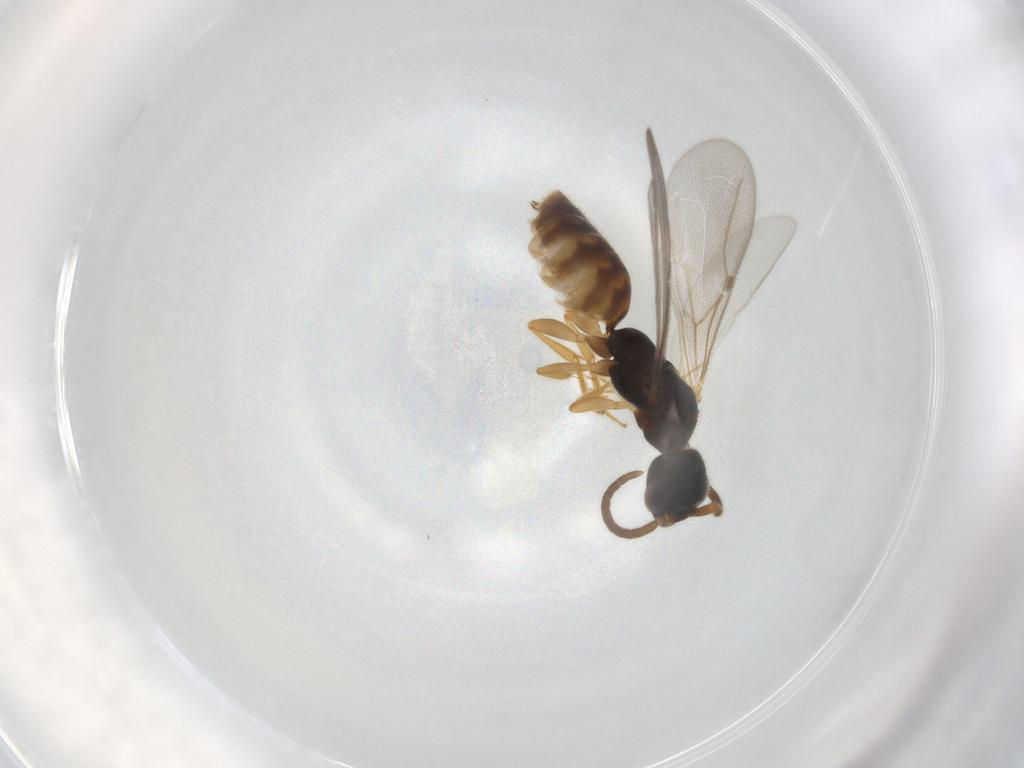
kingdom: Animalia
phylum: Arthropoda
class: Insecta
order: Hymenoptera
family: Bethylidae
